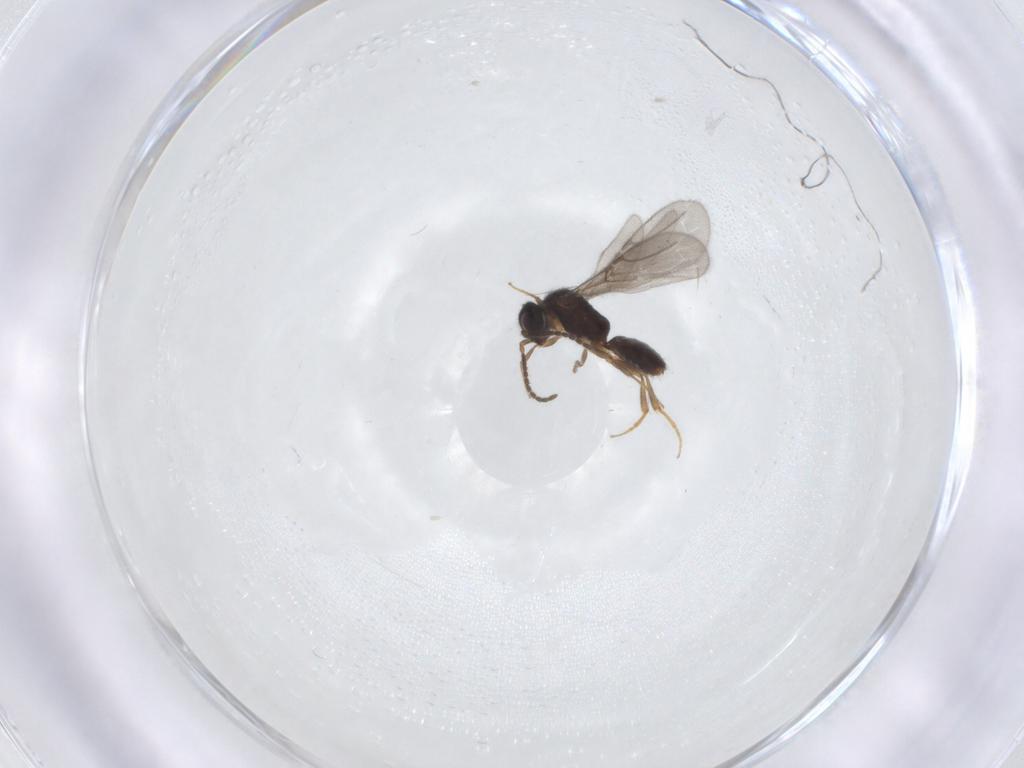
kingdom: Animalia
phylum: Arthropoda
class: Insecta
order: Hymenoptera
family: Bethylidae
